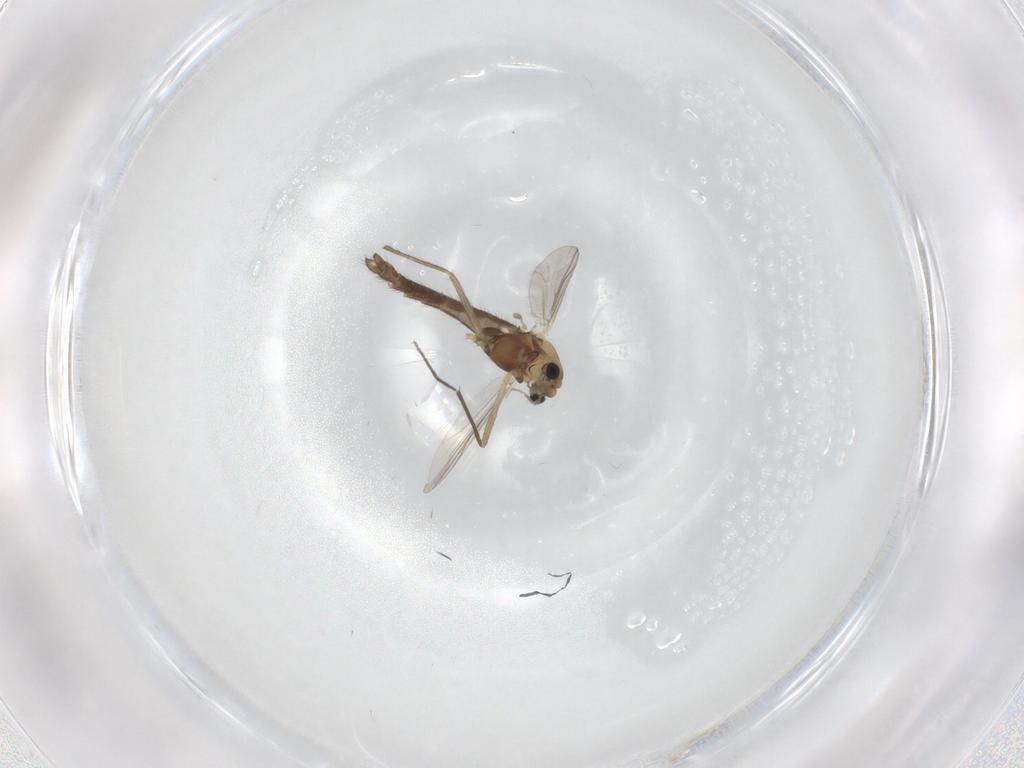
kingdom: Animalia
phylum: Arthropoda
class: Insecta
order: Diptera
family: Chironomidae
